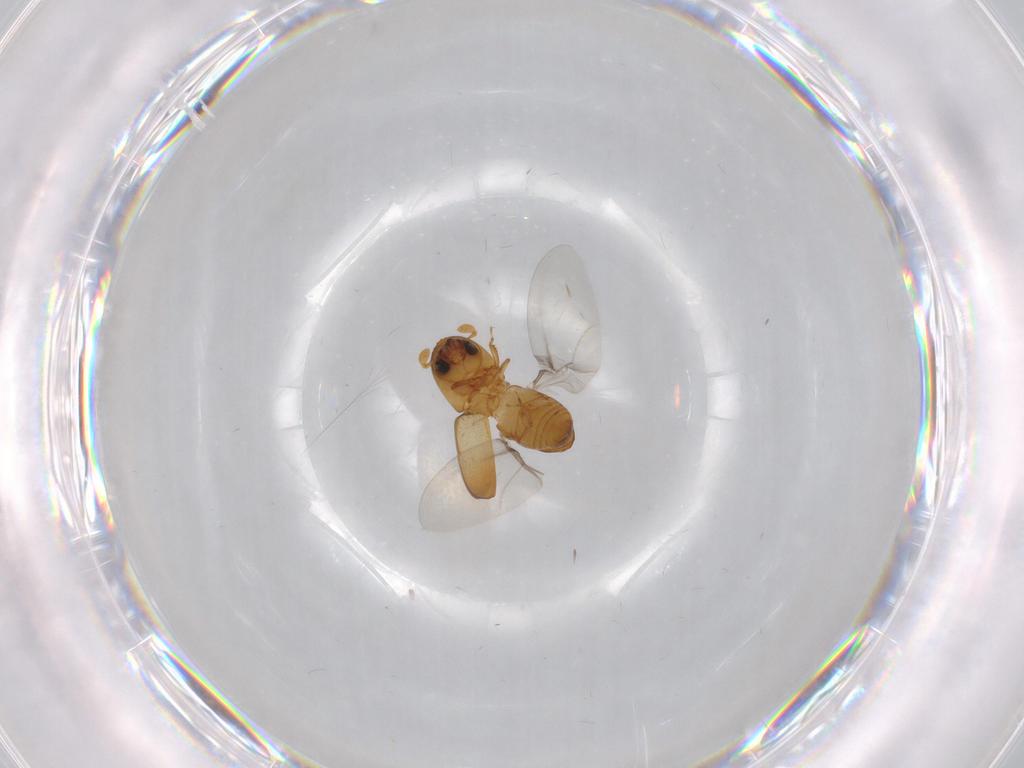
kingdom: Animalia
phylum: Arthropoda
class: Insecta
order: Coleoptera
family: Curculionidae
